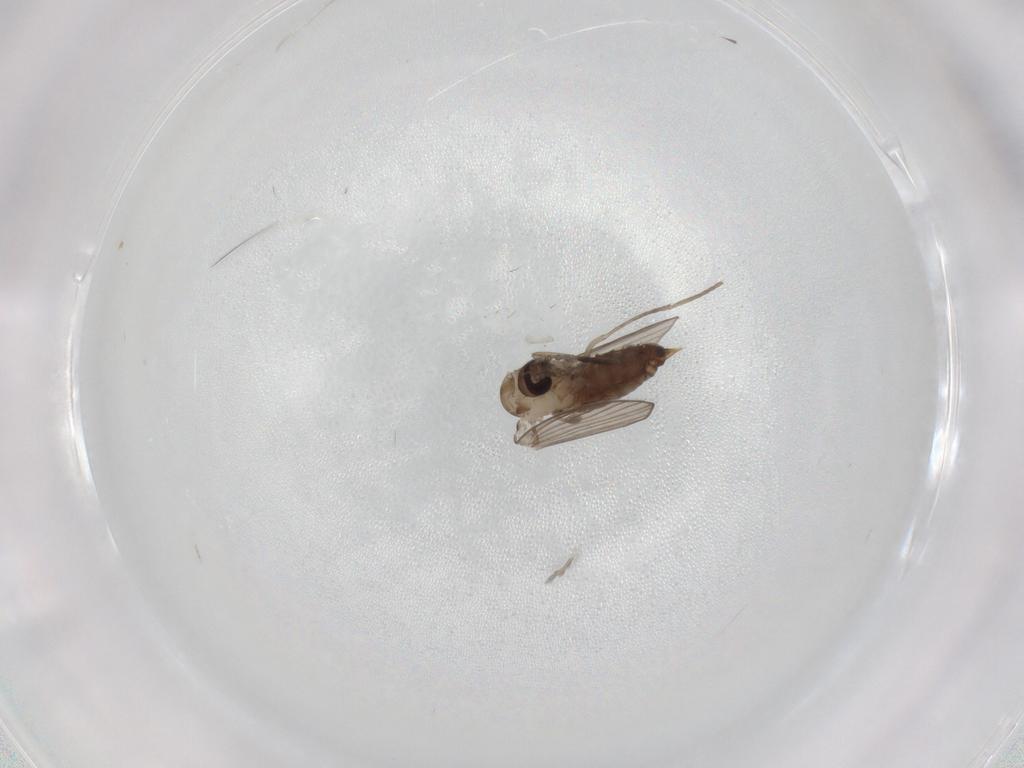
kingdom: Animalia
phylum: Arthropoda
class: Insecta
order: Diptera
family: Psychodidae
